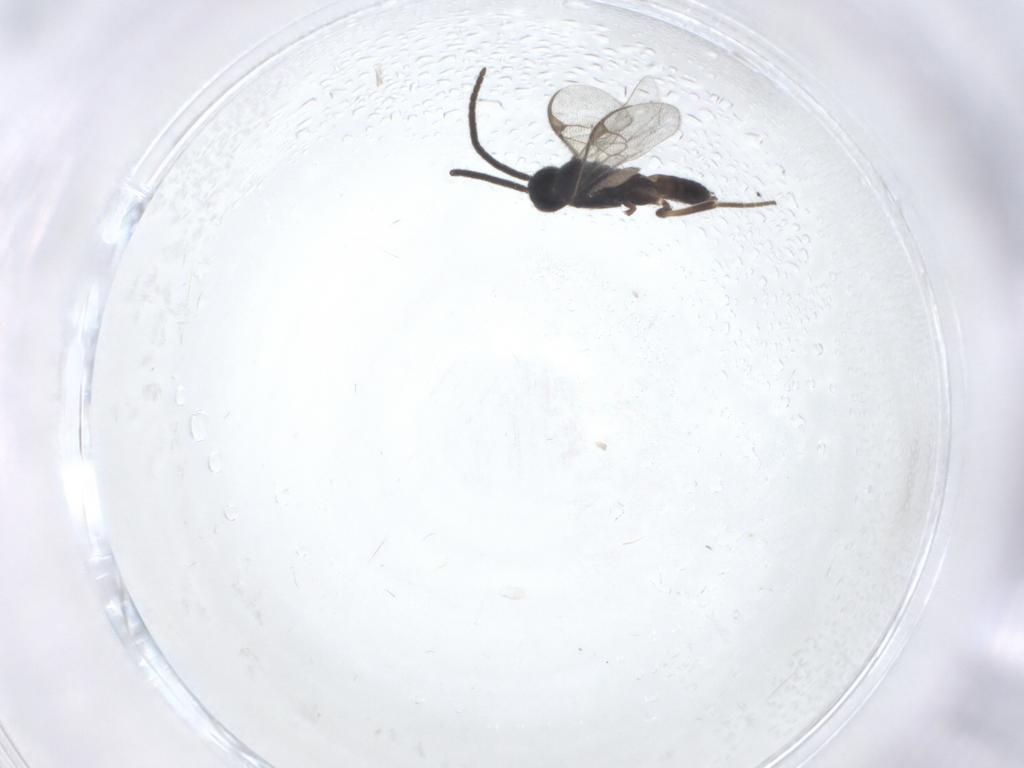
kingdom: Animalia
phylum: Arthropoda
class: Insecta
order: Hymenoptera
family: Braconidae
